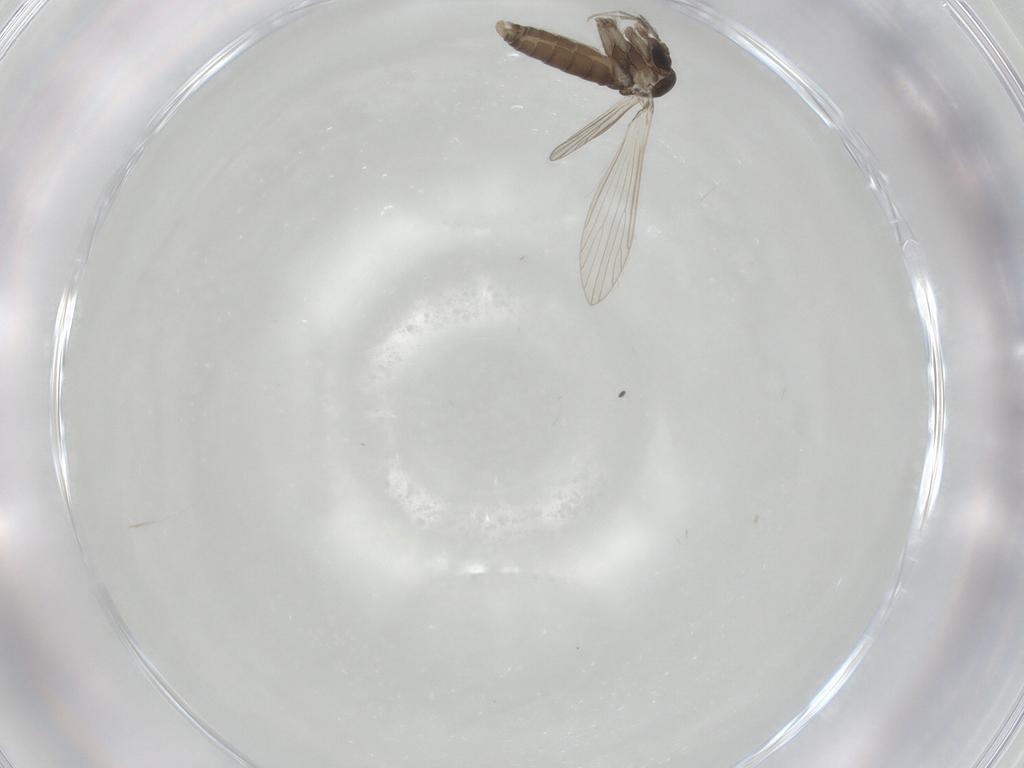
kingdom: Animalia
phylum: Arthropoda
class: Insecta
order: Diptera
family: Psychodidae
